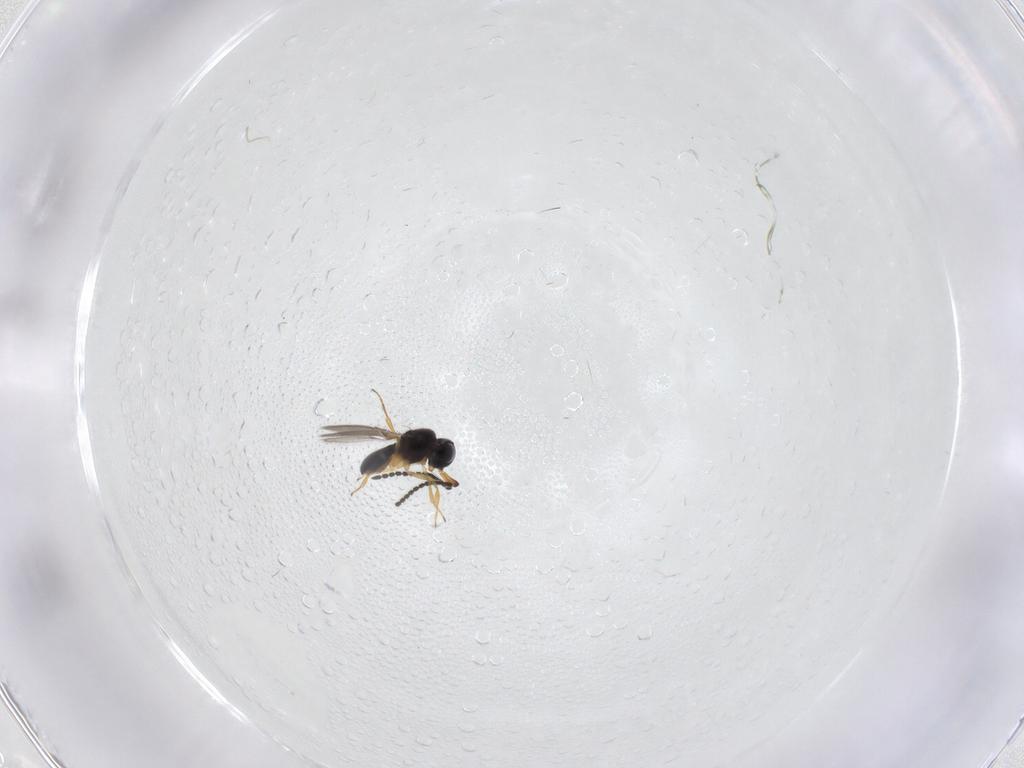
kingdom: Animalia
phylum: Arthropoda
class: Insecta
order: Hymenoptera
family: Scelionidae
